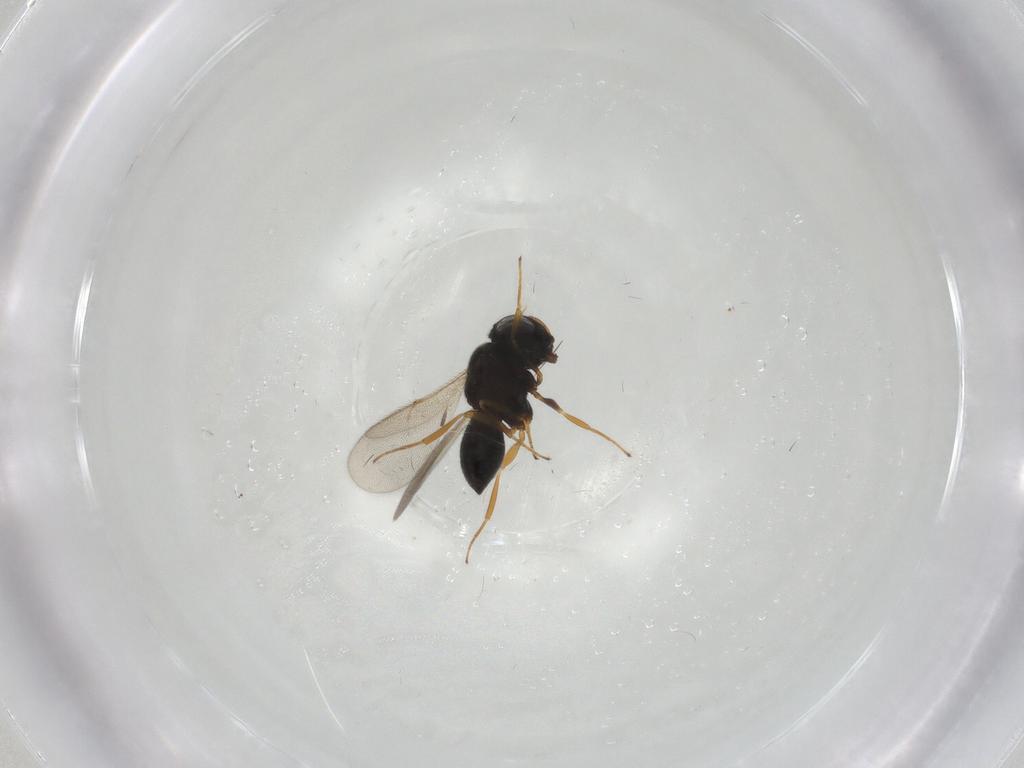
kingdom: Animalia
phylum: Arthropoda
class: Insecta
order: Hymenoptera
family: Scelionidae
